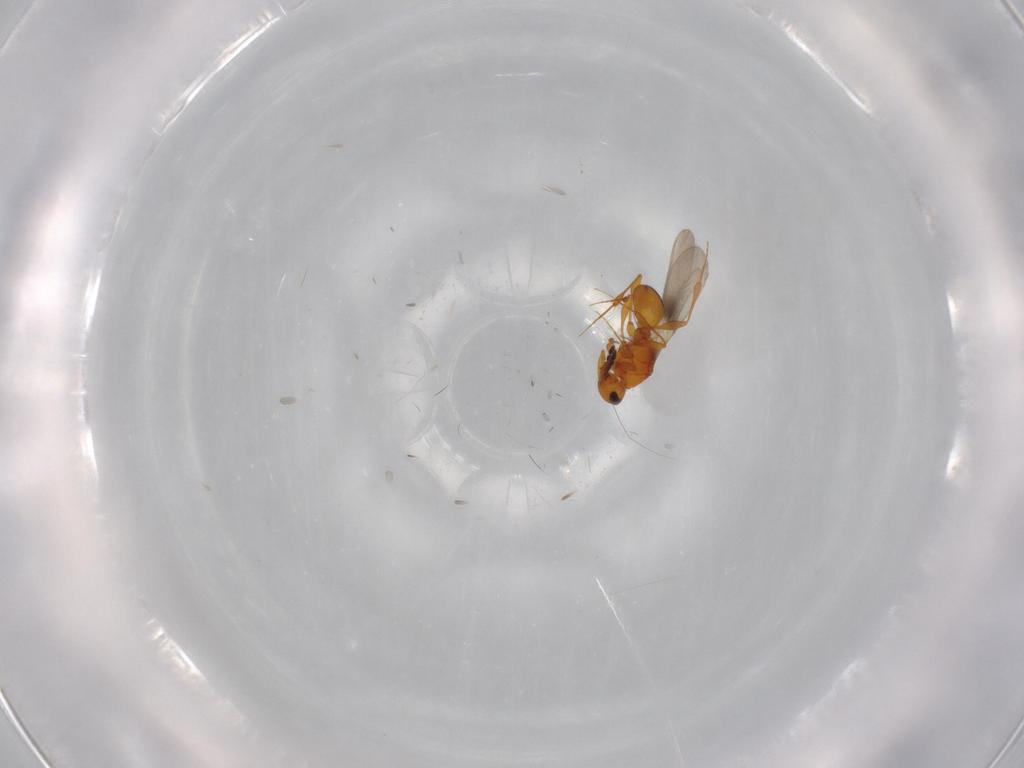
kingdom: Animalia
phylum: Arthropoda
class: Insecta
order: Hymenoptera
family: Platygastridae
